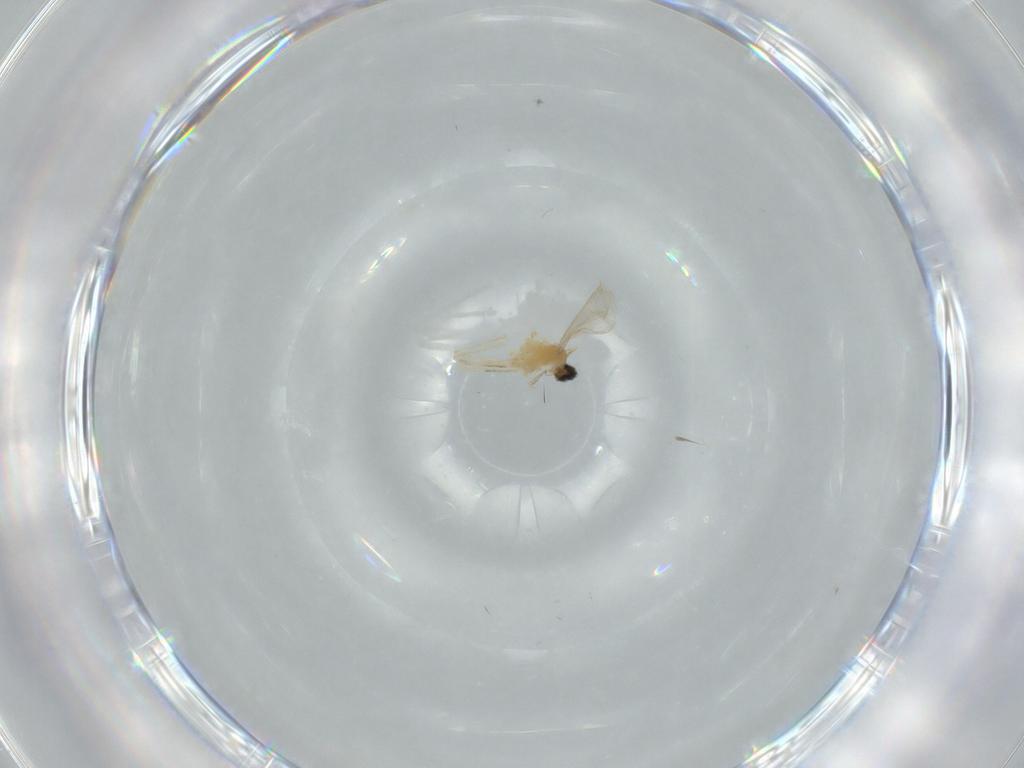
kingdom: Animalia
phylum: Arthropoda
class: Insecta
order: Diptera
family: Cecidomyiidae
